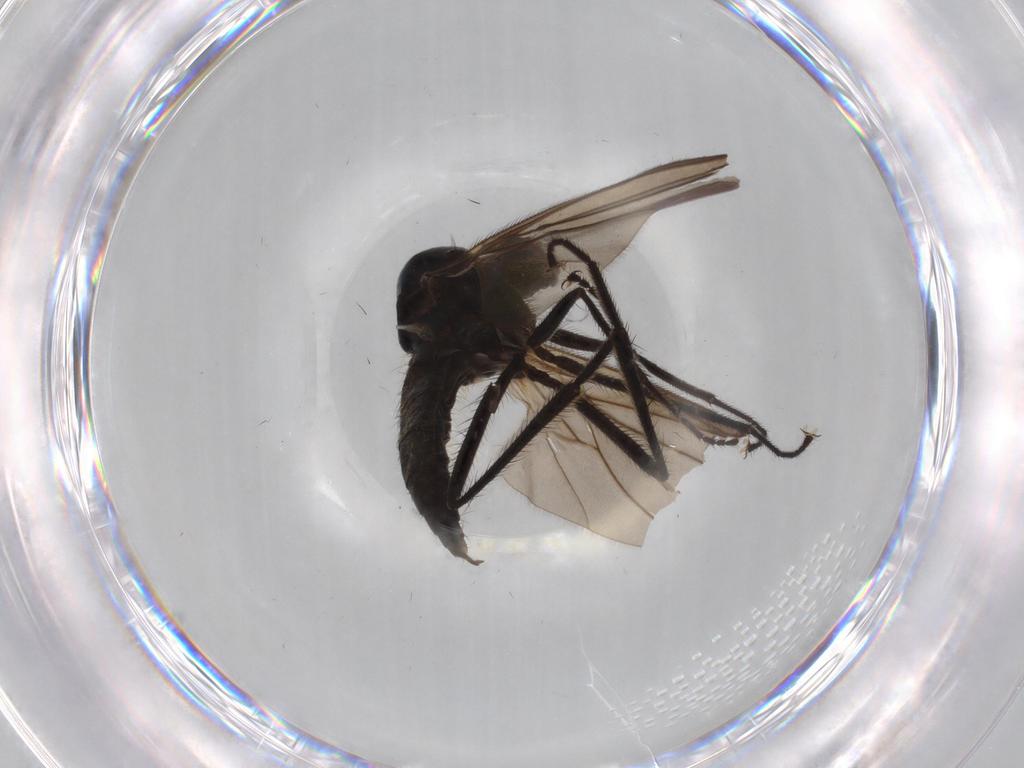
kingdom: Animalia
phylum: Arthropoda
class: Insecta
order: Diptera
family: Hybotidae
